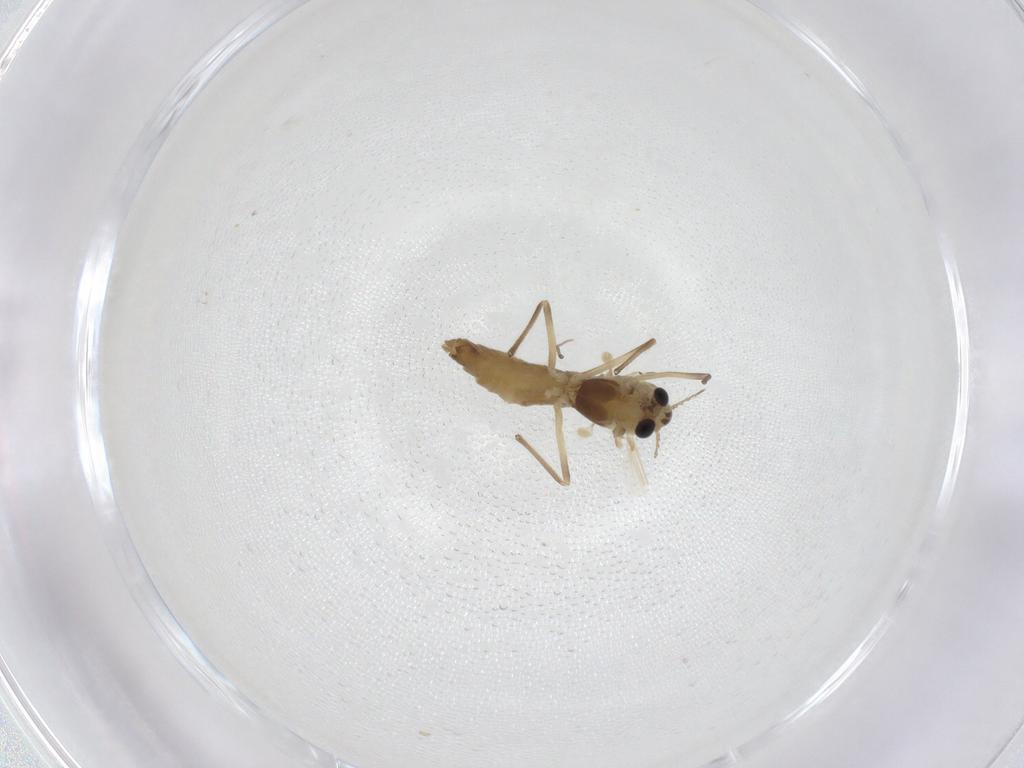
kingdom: Animalia
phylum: Arthropoda
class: Insecta
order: Diptera
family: Chironomidae
